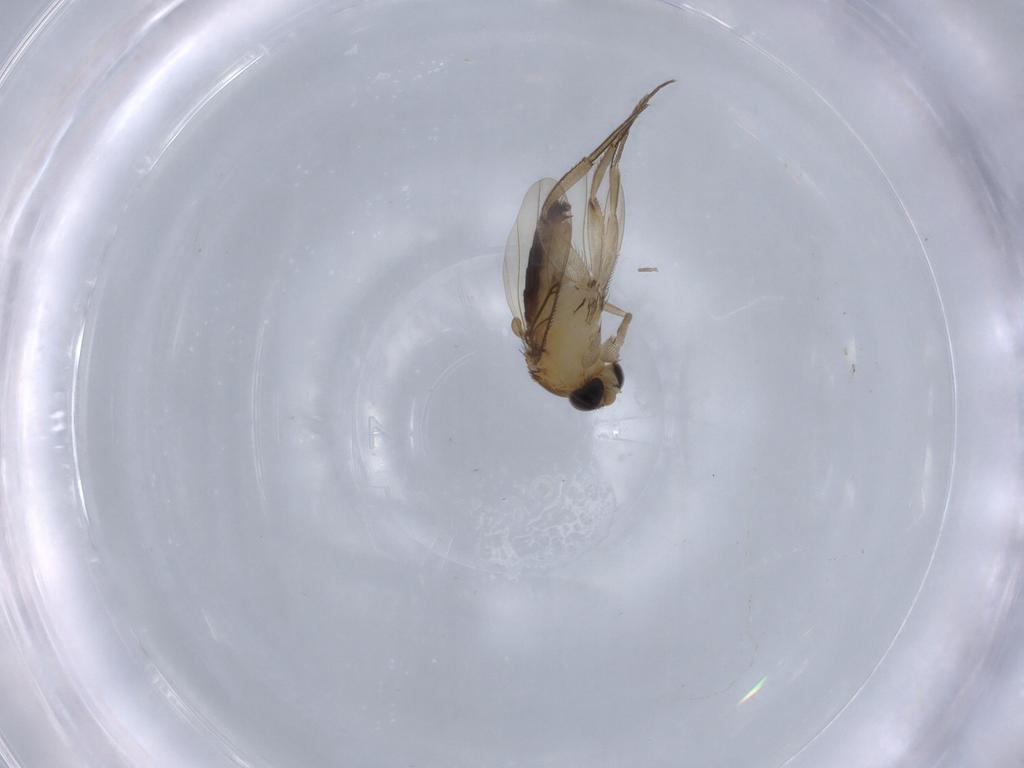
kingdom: Animalia
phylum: Arthropoda
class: Insecta
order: Diptera
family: Phoridae
